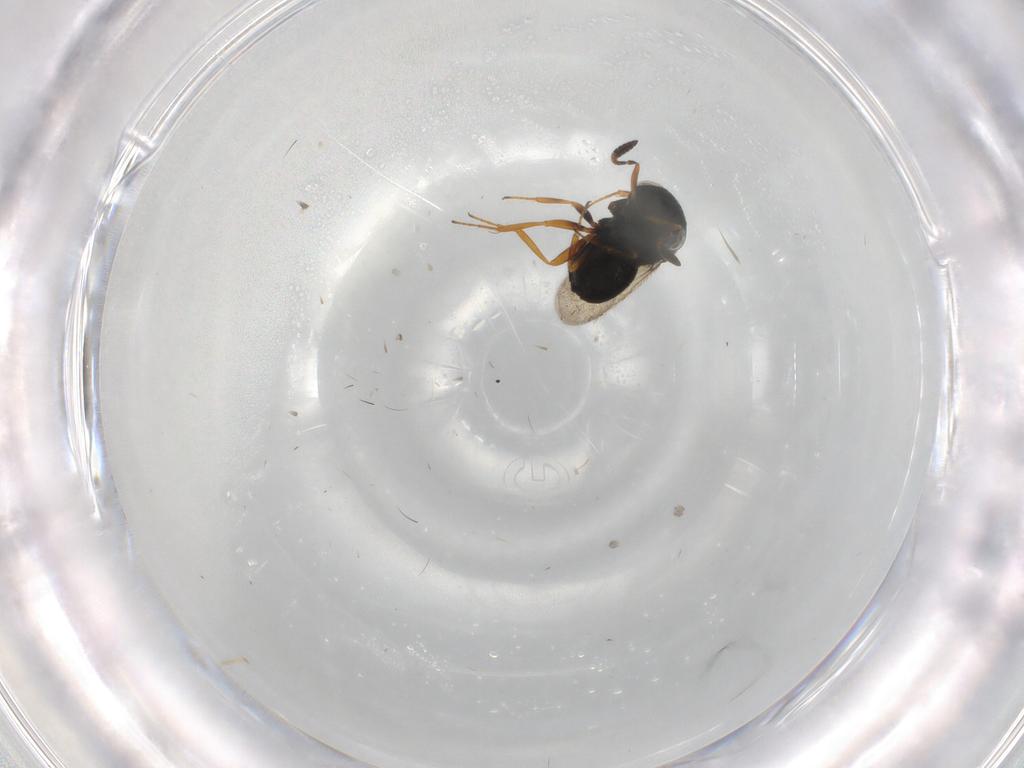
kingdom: Animalia
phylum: Arthropoda
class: Insecta
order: Hymenoptera
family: Scelionidae
